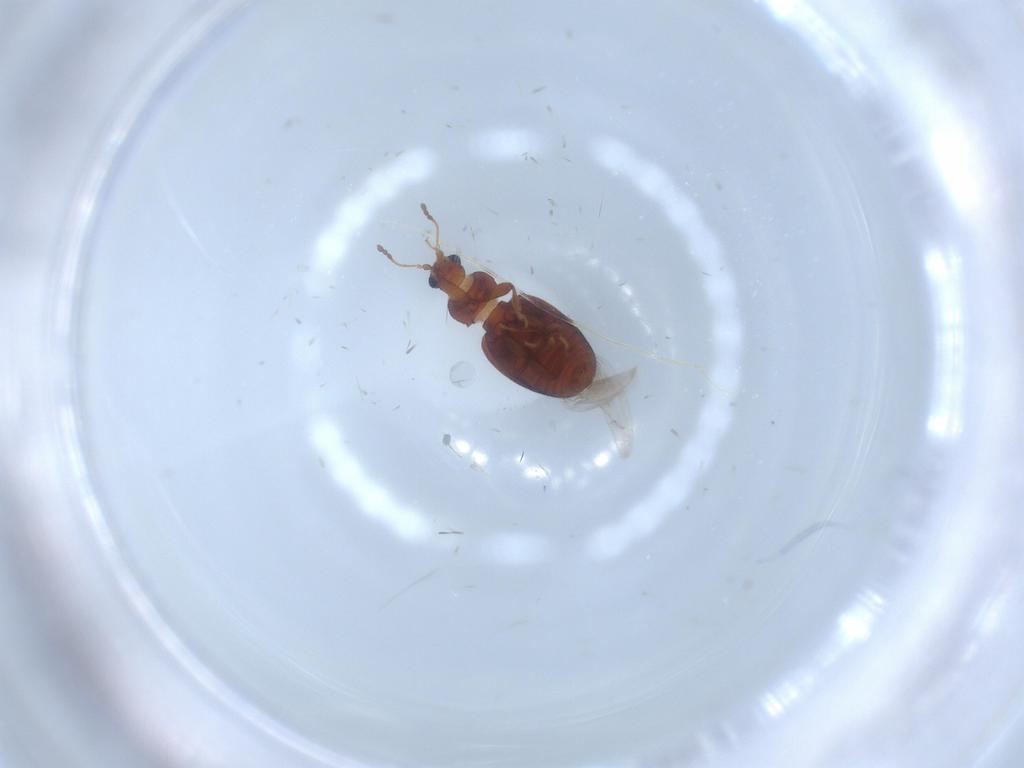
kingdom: Animalia
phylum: Arthropoda
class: Insecta
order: Coleoptera
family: Latridiidae
